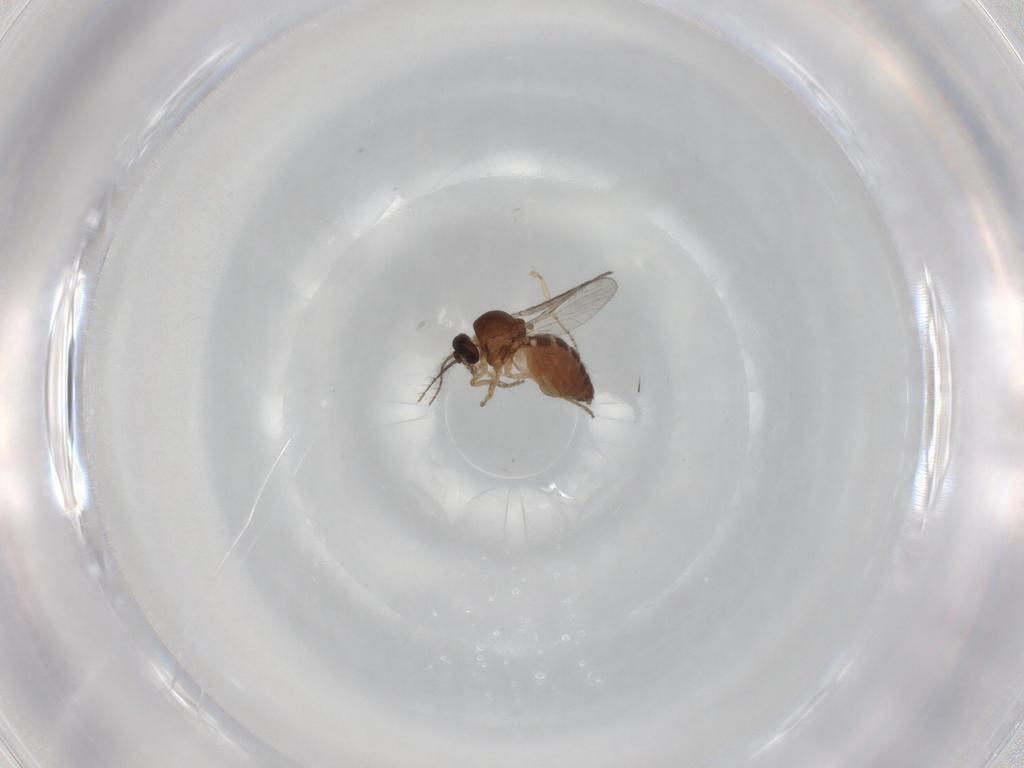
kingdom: Animalia
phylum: Arthropoda
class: Insecta
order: Diptera
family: Ceratopogonidae
